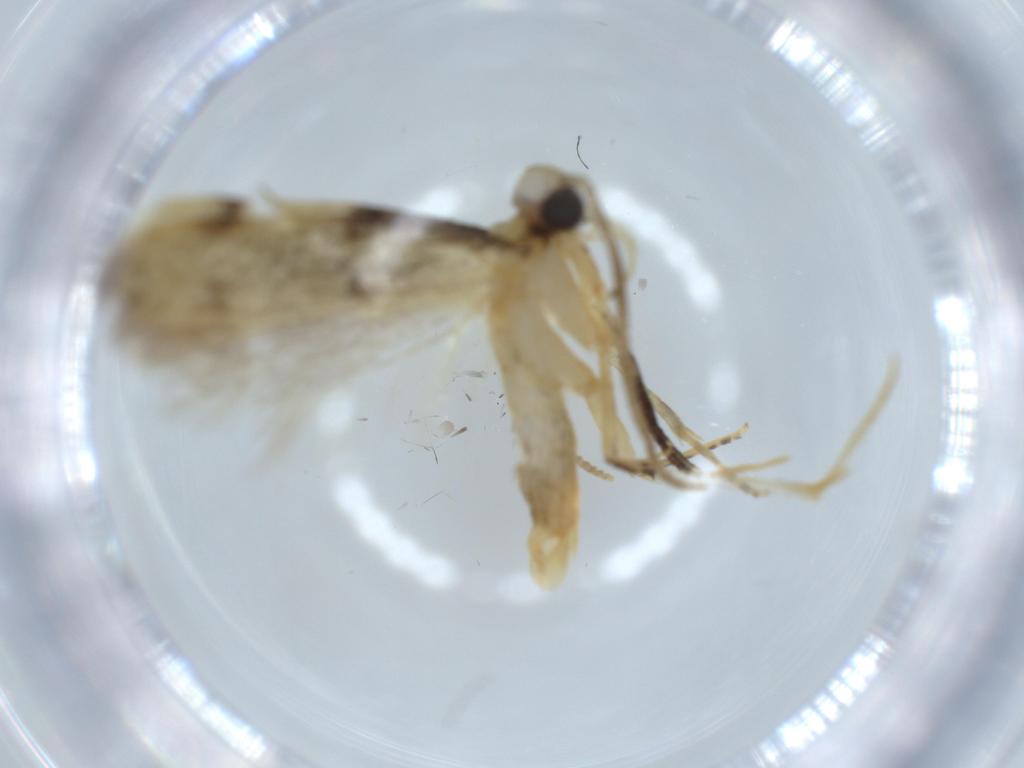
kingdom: Animalia
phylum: Arthropoda
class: Insecta
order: Lepidoptera
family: Autostichidae
